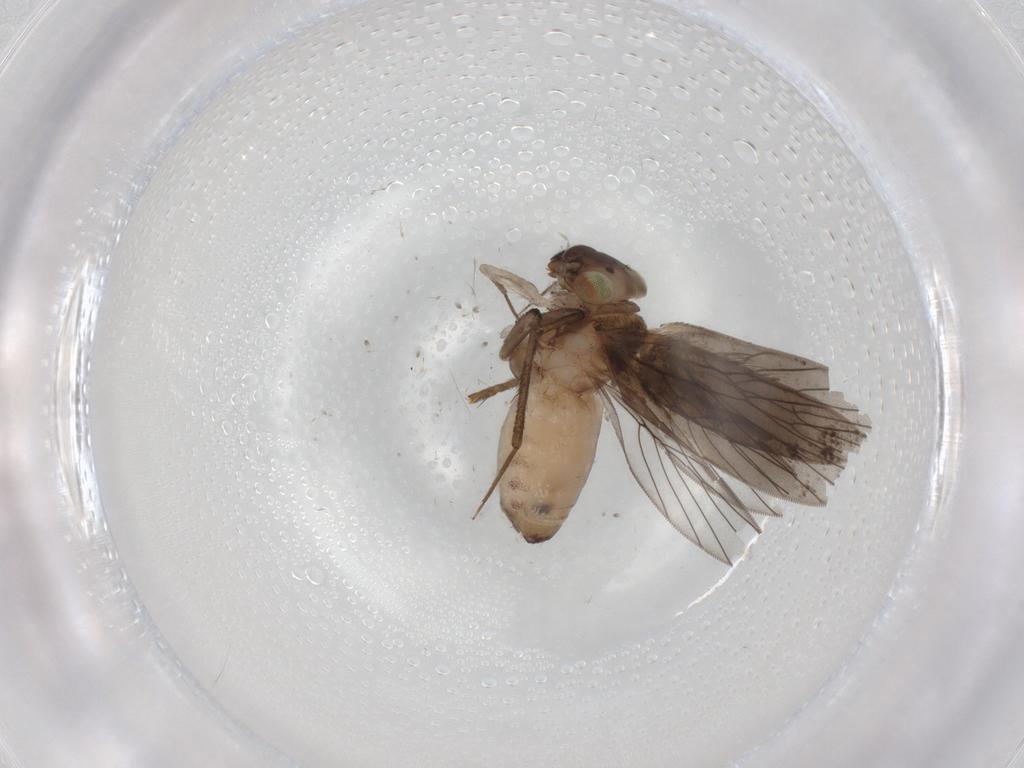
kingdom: Animalia
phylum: Arthropoda
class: Insecta
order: Psocodea
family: Lepidopsocidae
